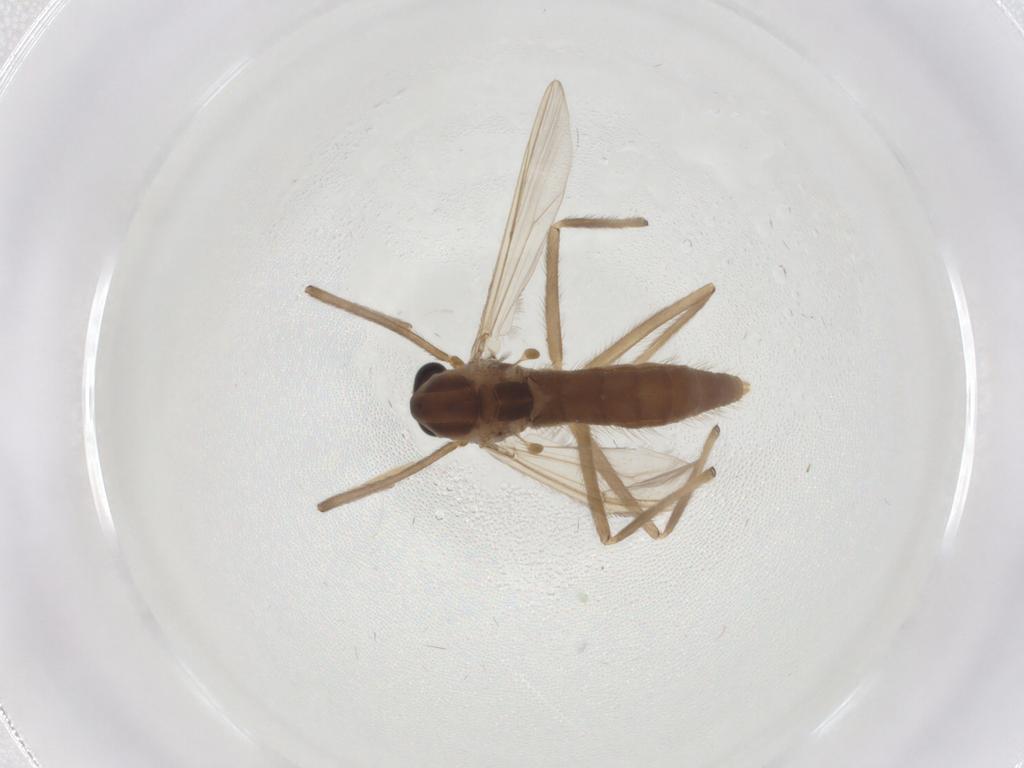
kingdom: Animalia
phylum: Arthropoda
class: Insecta
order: Diptera
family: Chironomidae
